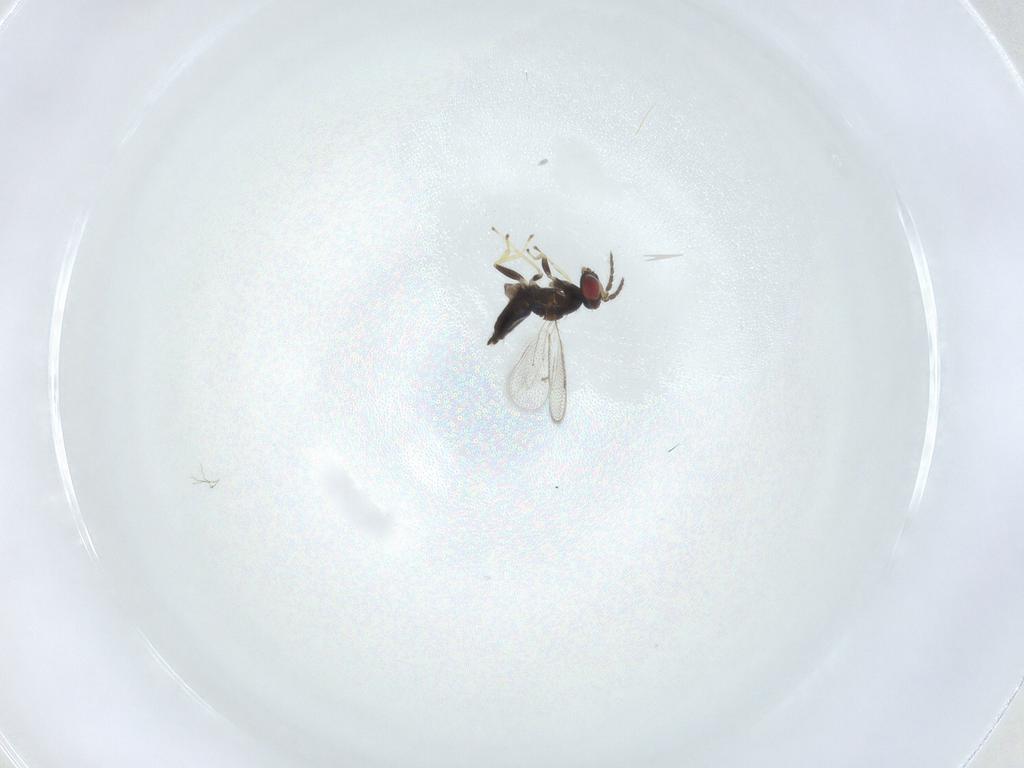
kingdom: Animalia
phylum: Arthropoda
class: Insecta
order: Hymenoptera
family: Eulophidae
